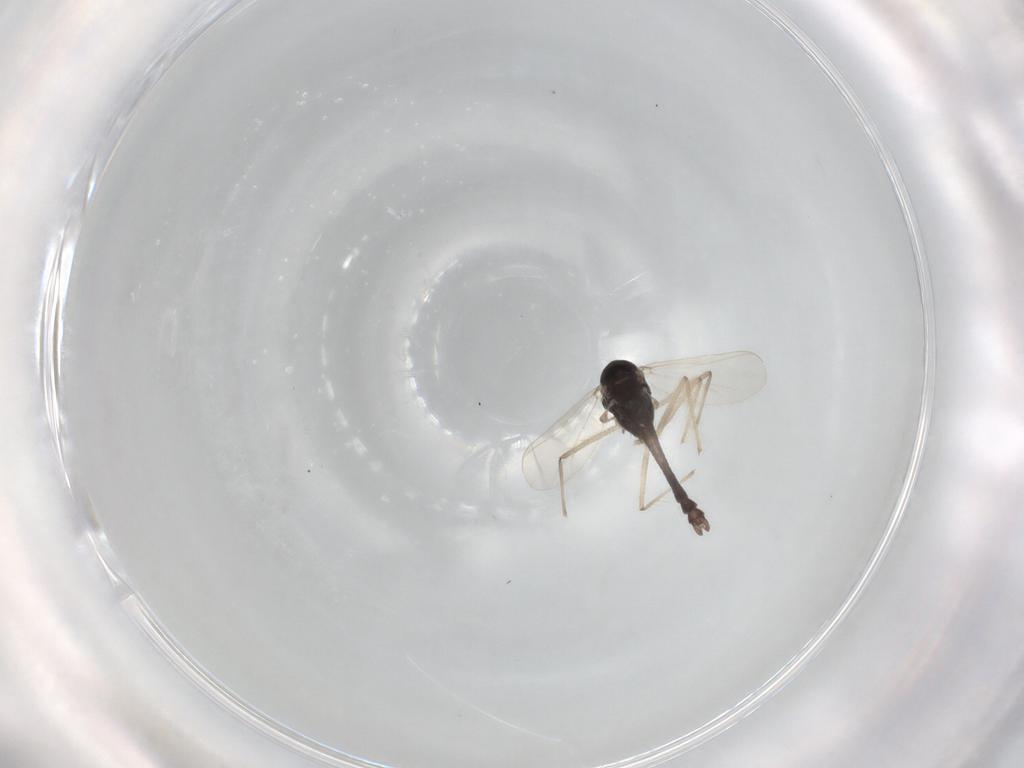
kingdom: Animalia
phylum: Arthropoda
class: Insecta
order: Diptera
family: Chironomidae
